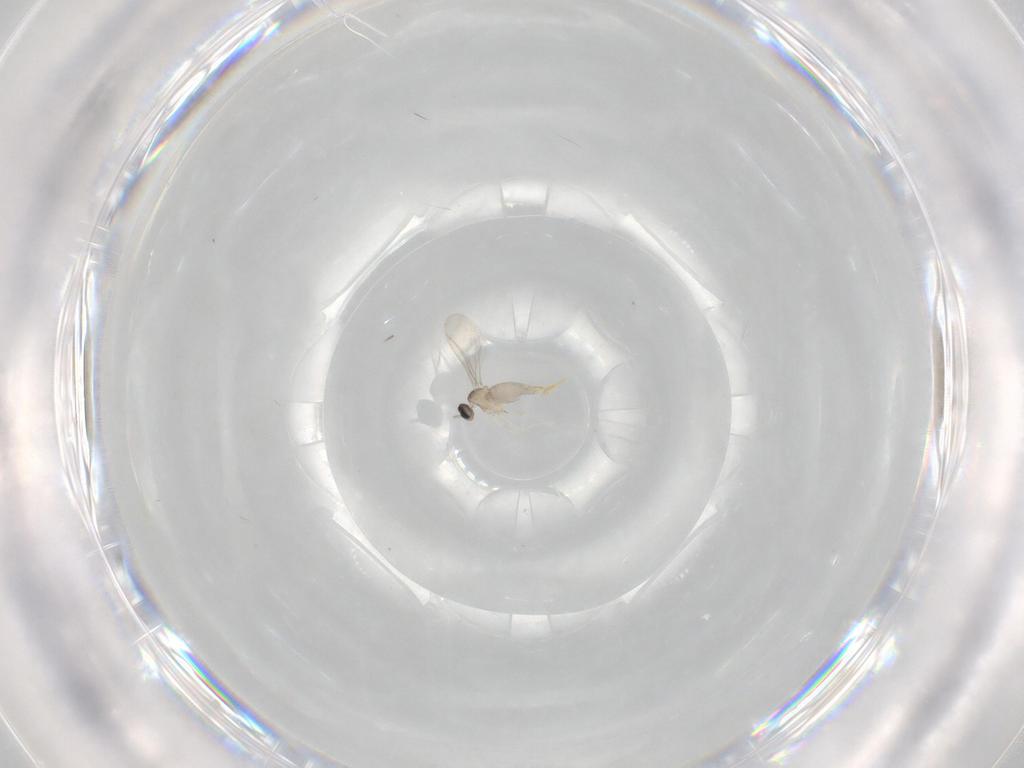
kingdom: Animalia
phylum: Arthropoda
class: Insecta
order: Diptera
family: Cecidomyiidae
